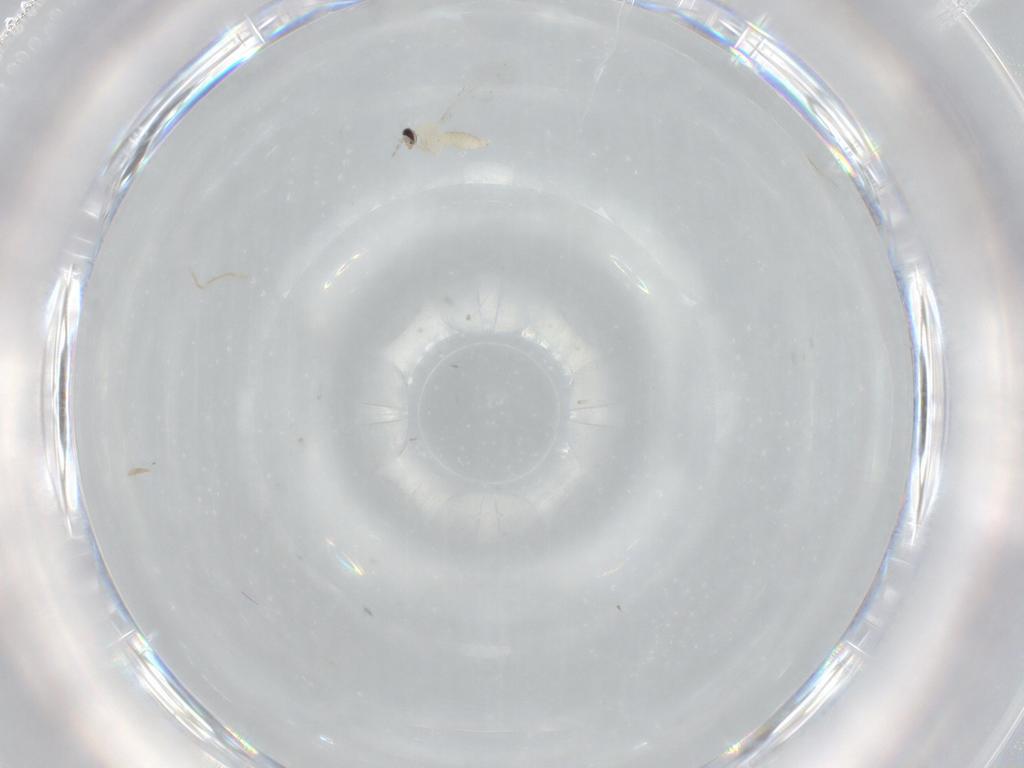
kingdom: Animalia
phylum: Arthropoda
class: Insecta
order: Diptera
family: Cecidomyiidae
